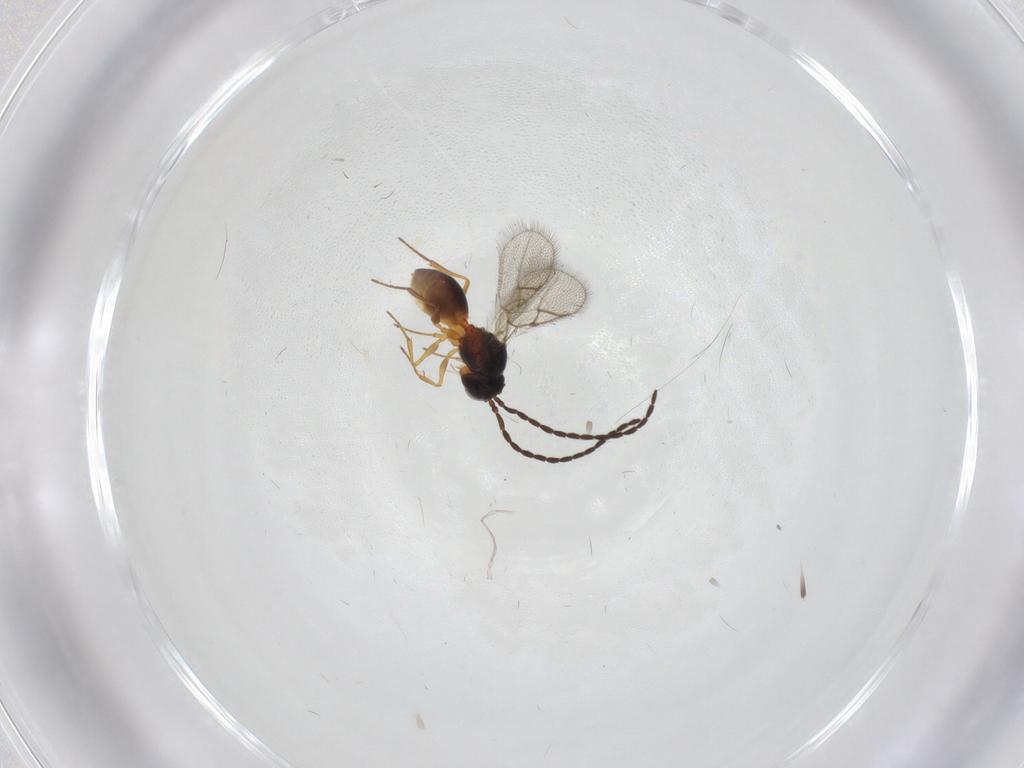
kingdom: Animalia
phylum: Arthropoda
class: Insecta
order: Hymenoptera
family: Figitidae
